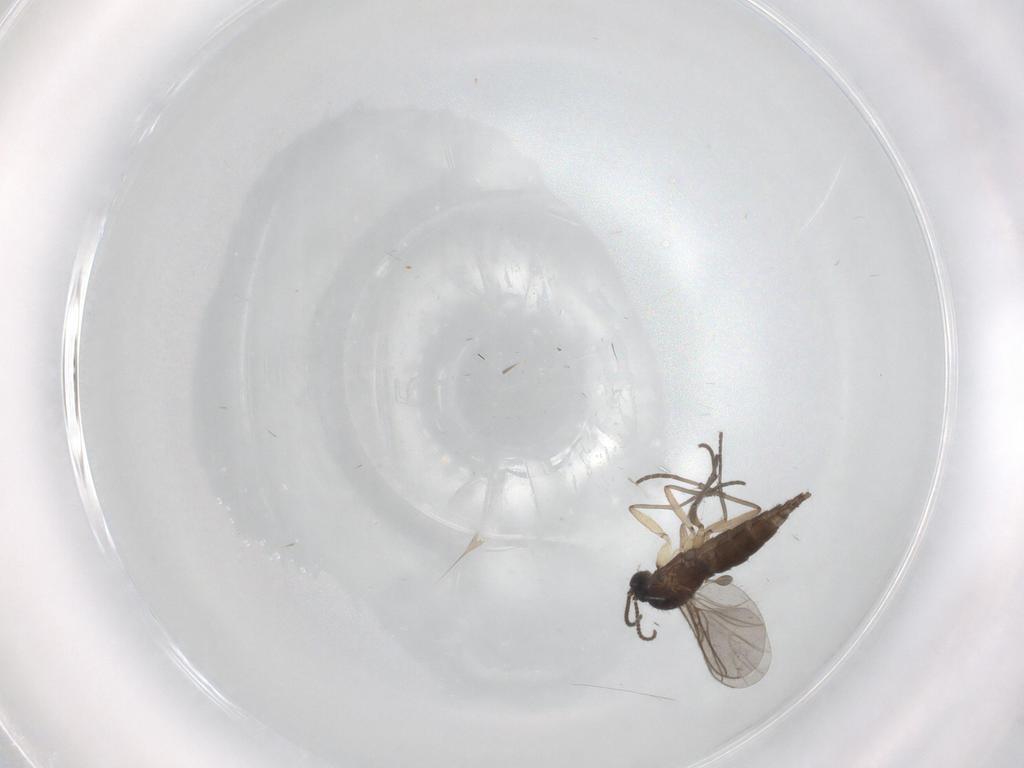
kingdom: Animalia
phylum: Arthropoda
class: Insecta
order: Diptera
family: Sciaridae
